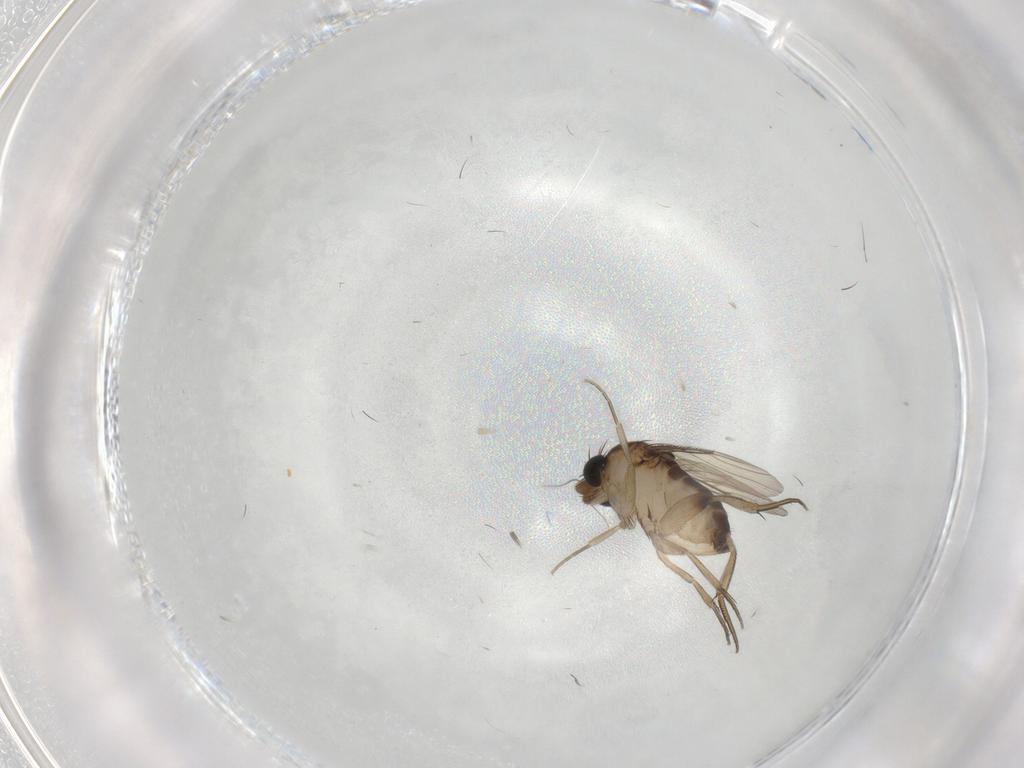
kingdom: Animalia
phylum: Arthropoda
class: Insecta
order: Diptera
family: Phoridae
